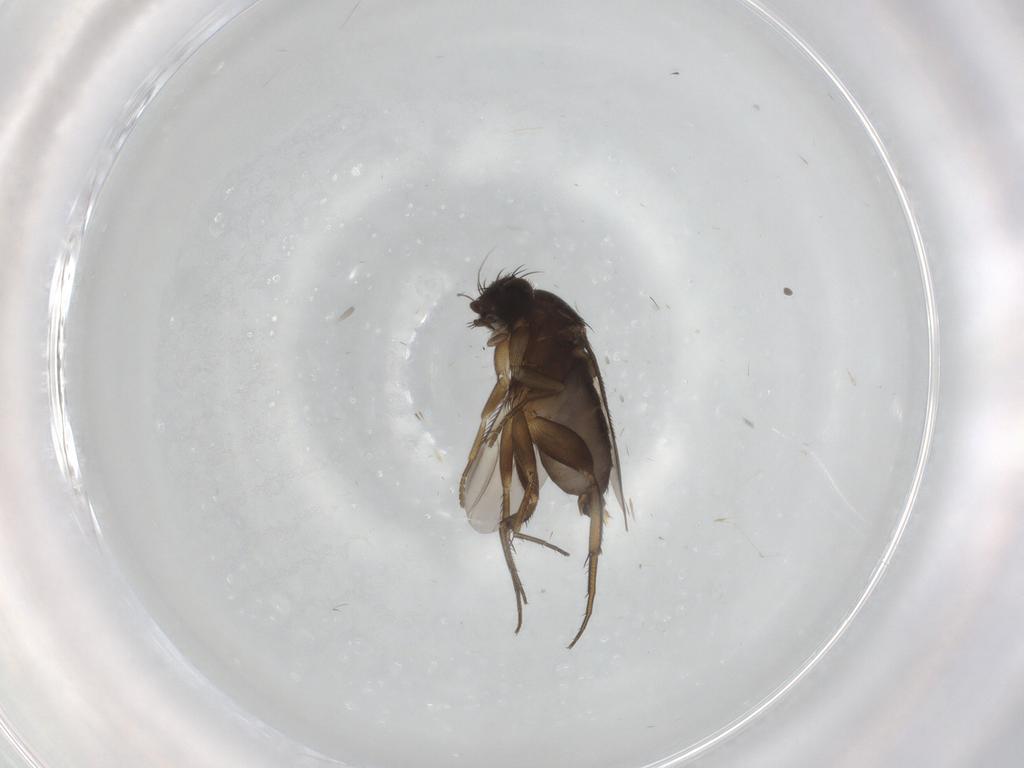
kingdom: Animalia
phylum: Arthropoda
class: Insecta
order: Diptera
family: Phoridae
